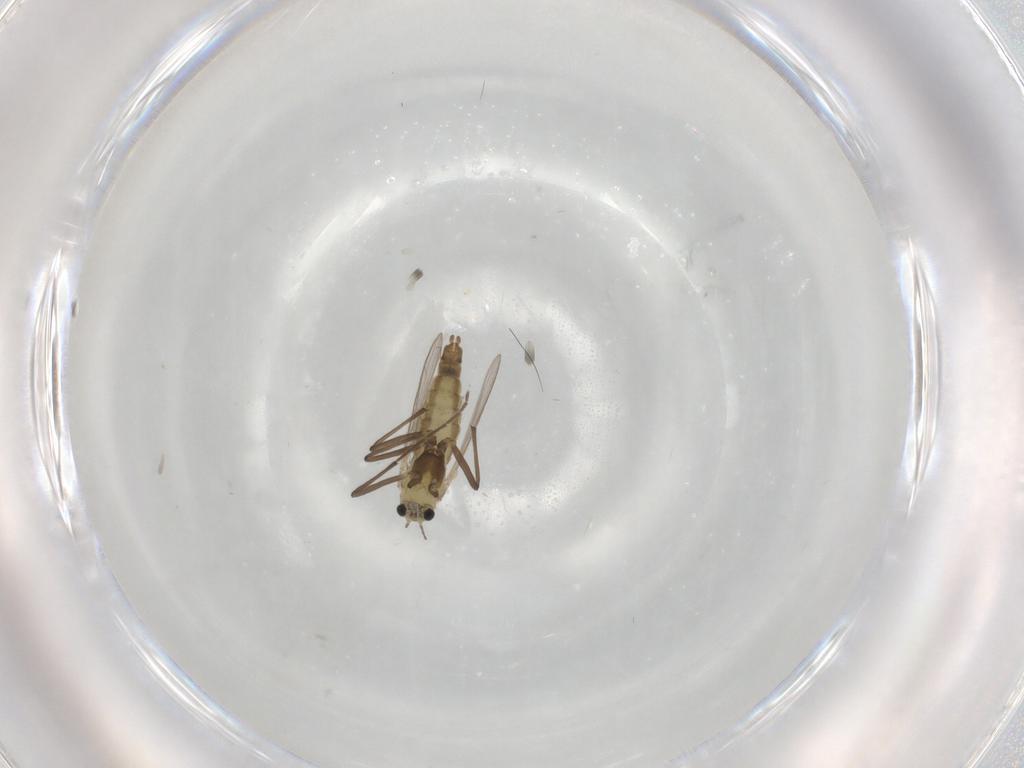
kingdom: Animalia
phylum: Arthropoda
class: Insecta
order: Diptera
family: Chironomidae
